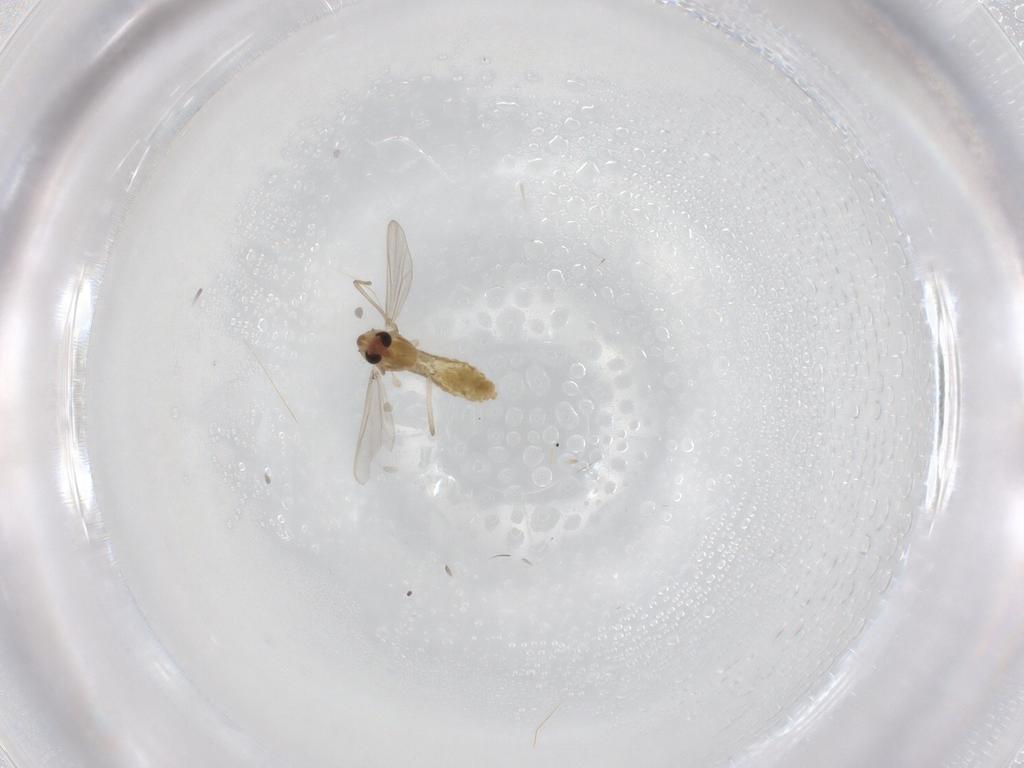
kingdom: Animalia
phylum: Arthropoda
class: Insecta
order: Diptera
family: Chironomidae
